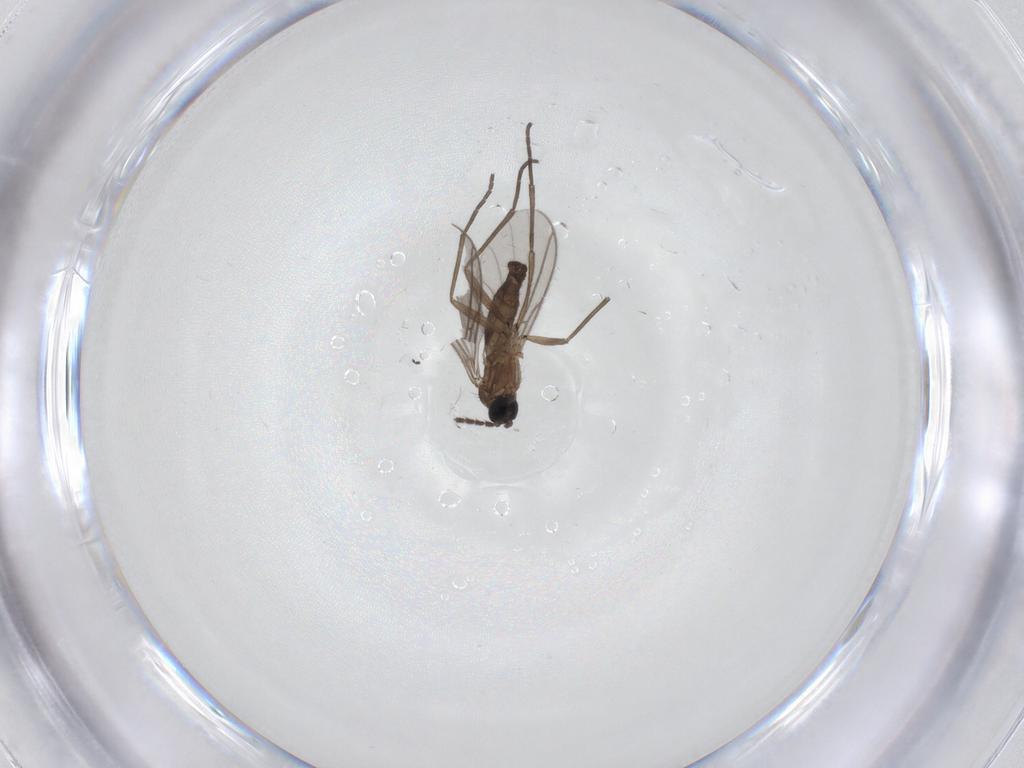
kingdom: Animalia
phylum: Arthropoda
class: Insecta
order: Diptera
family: Sciaridae
